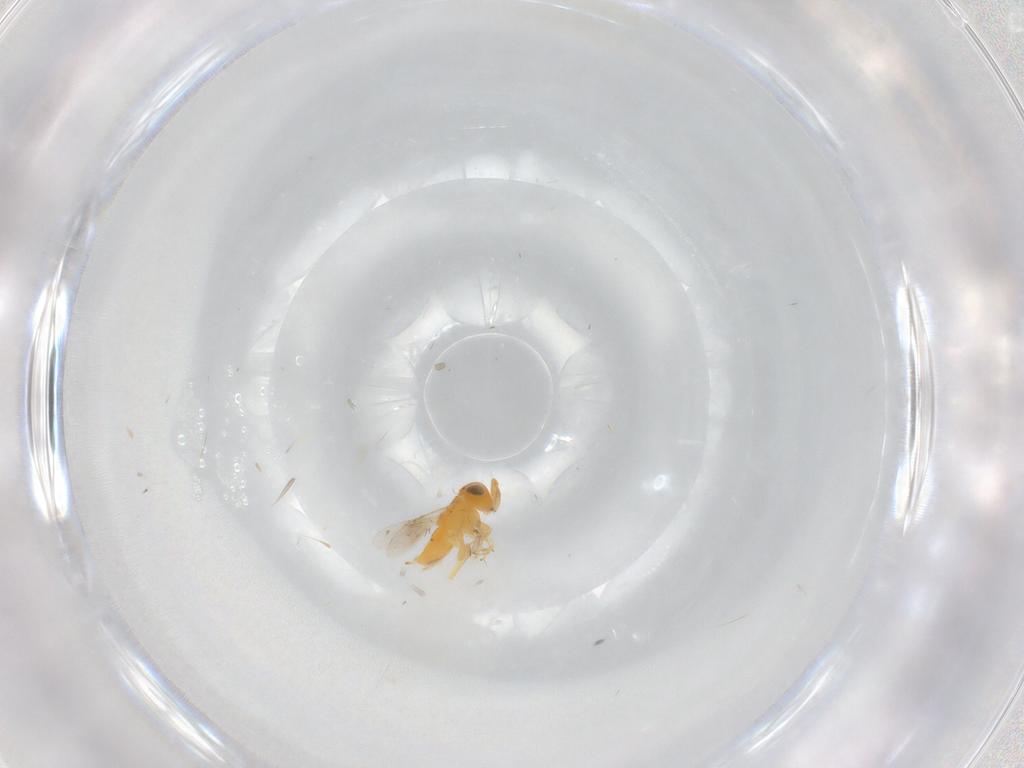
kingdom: Animalia
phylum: Arthropoda
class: Insecta
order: Hymenoptera
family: Encyrtidae
